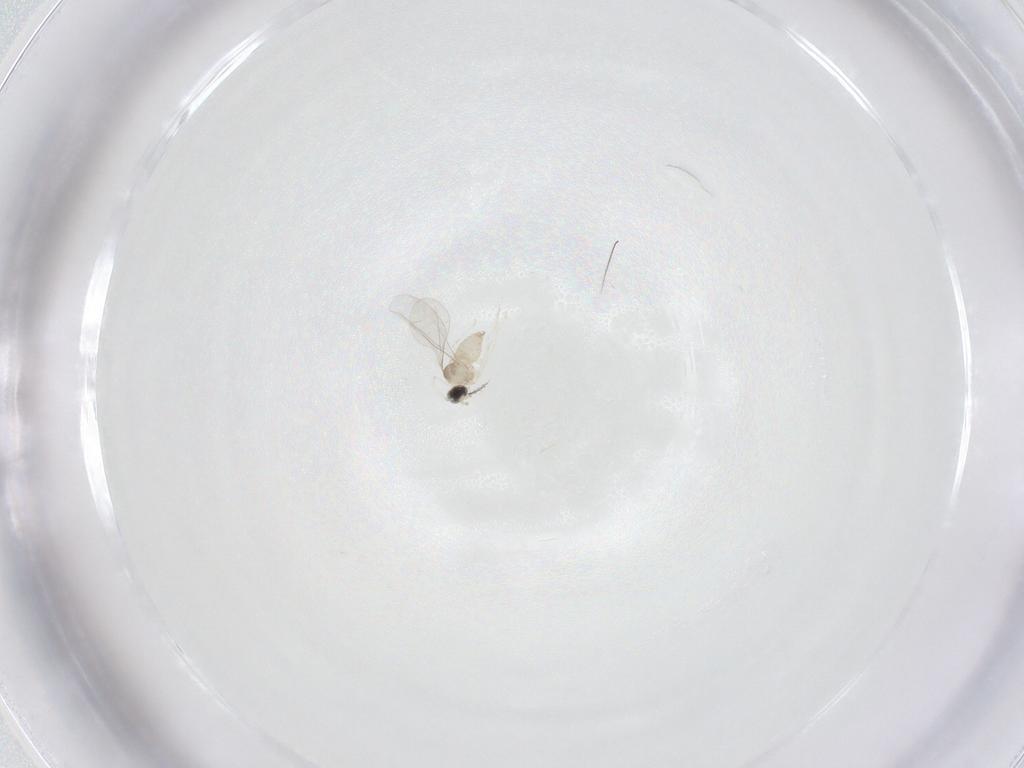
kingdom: Animalia
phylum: Arthropoda
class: Insecta
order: Diptera
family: Cecidomyiidae
